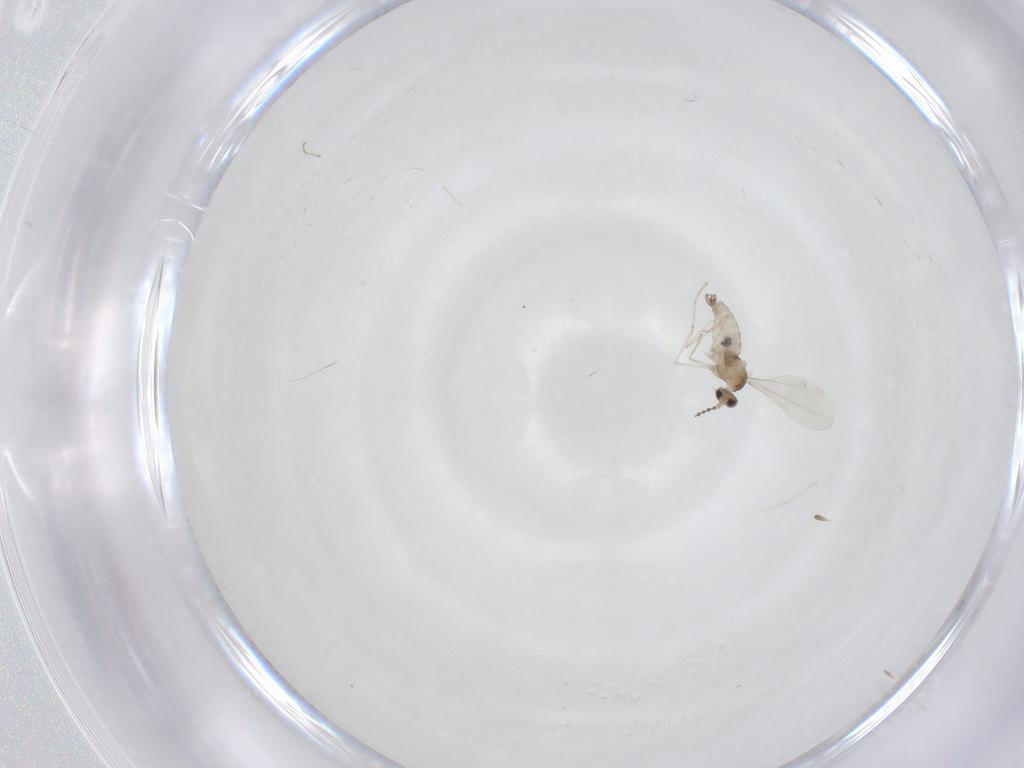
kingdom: Animalia
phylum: Arthropoda
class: Insecta
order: Diptera
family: Cecidomyiidae
